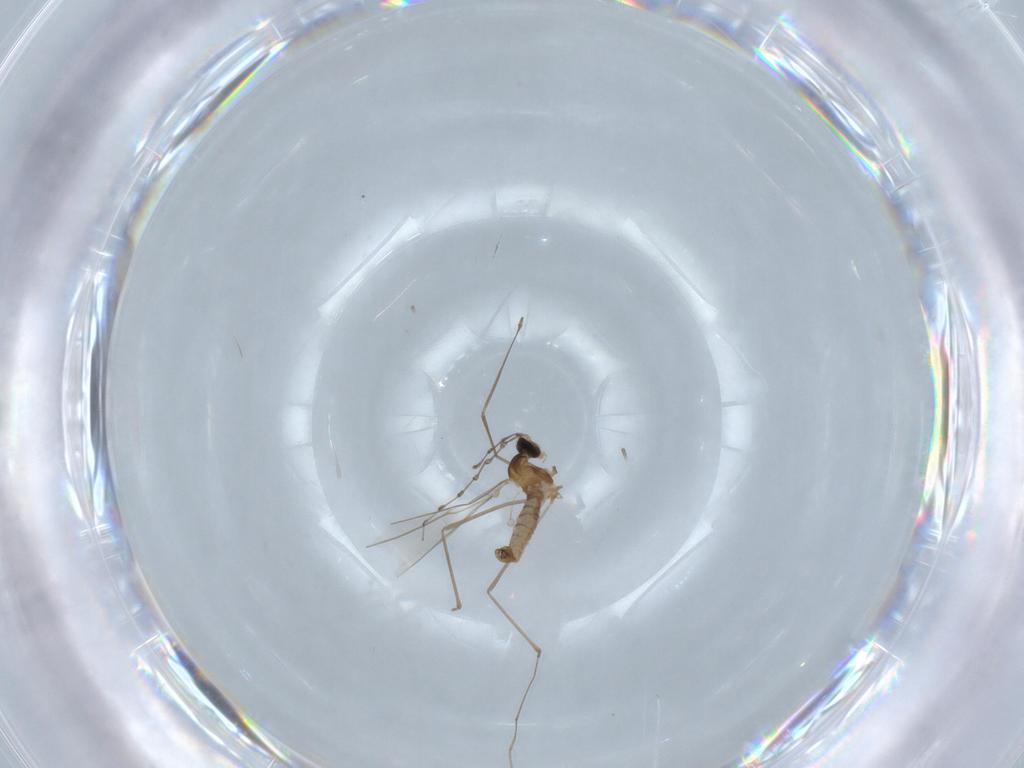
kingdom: Animalia
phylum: Arthropoda
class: Insecta
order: Diptera
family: Cecidomyiidae
